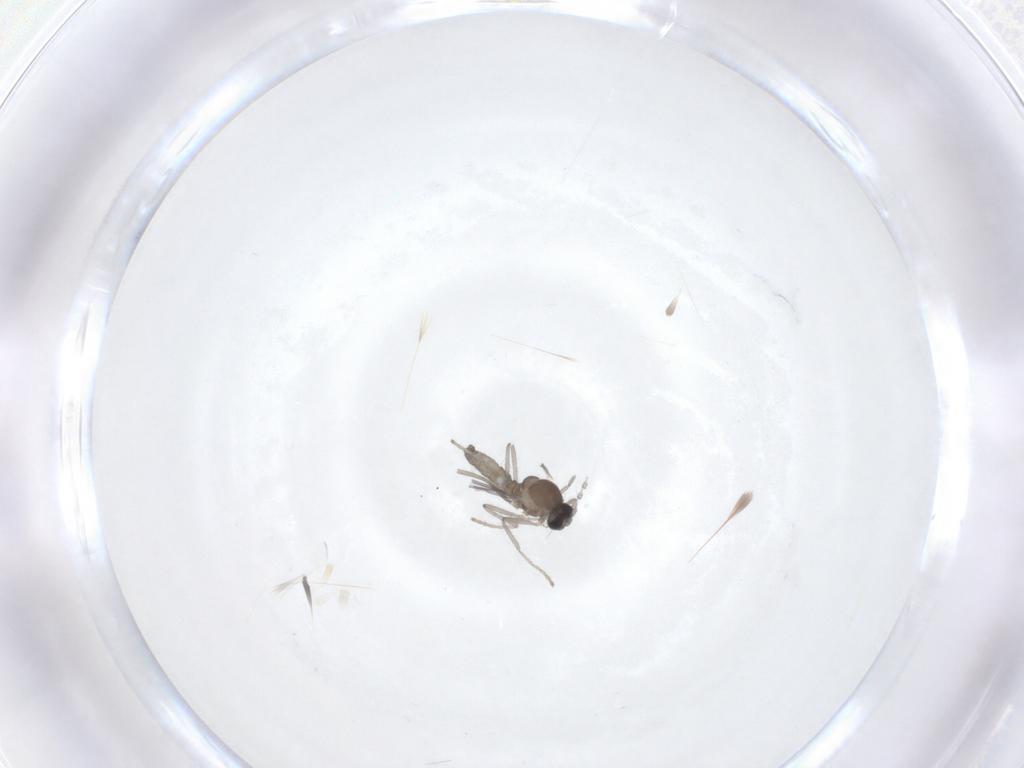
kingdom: Animalia
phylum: Arthropoda
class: Insecta
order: Diptera
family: Cecidomyiidae
